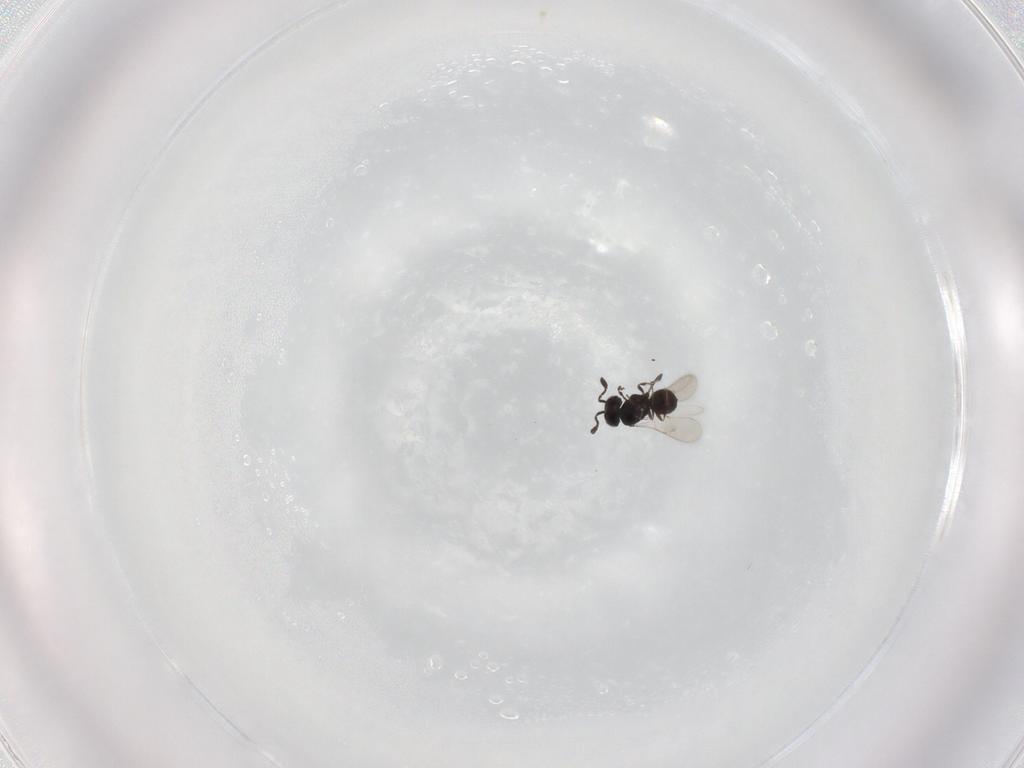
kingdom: Animalia
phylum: Arthropoda
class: Insecta
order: Hymenoptera
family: Scelionidae
